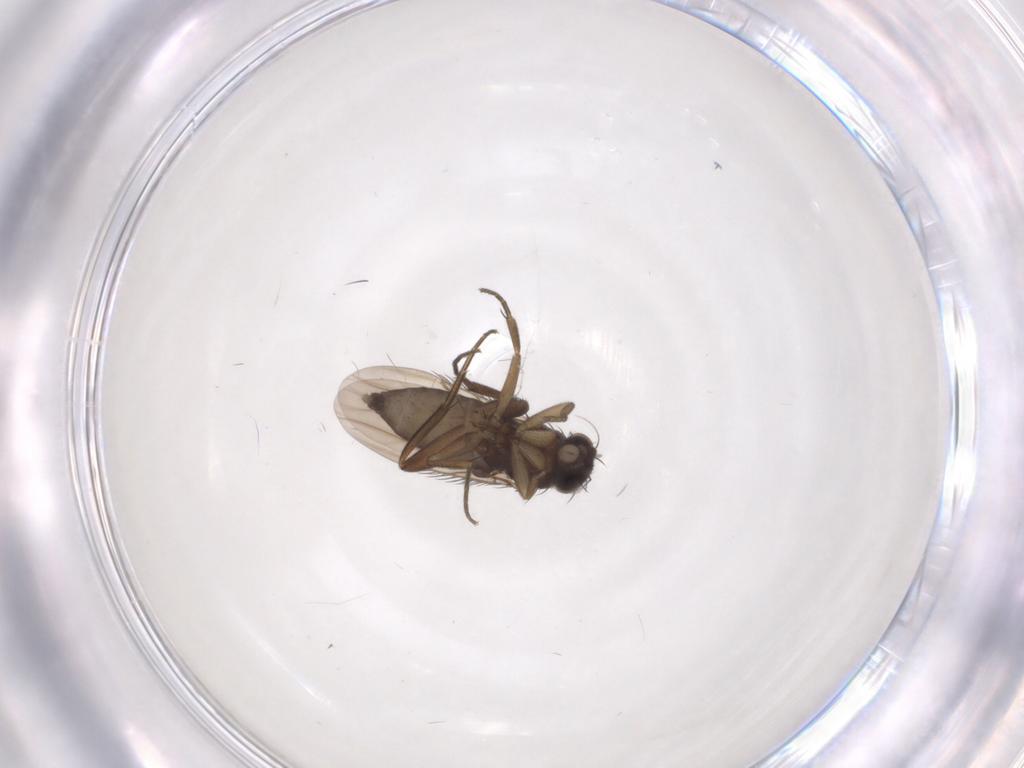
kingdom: Animalia
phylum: Arthropoda
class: Insecta
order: Diptera
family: Phoridae
